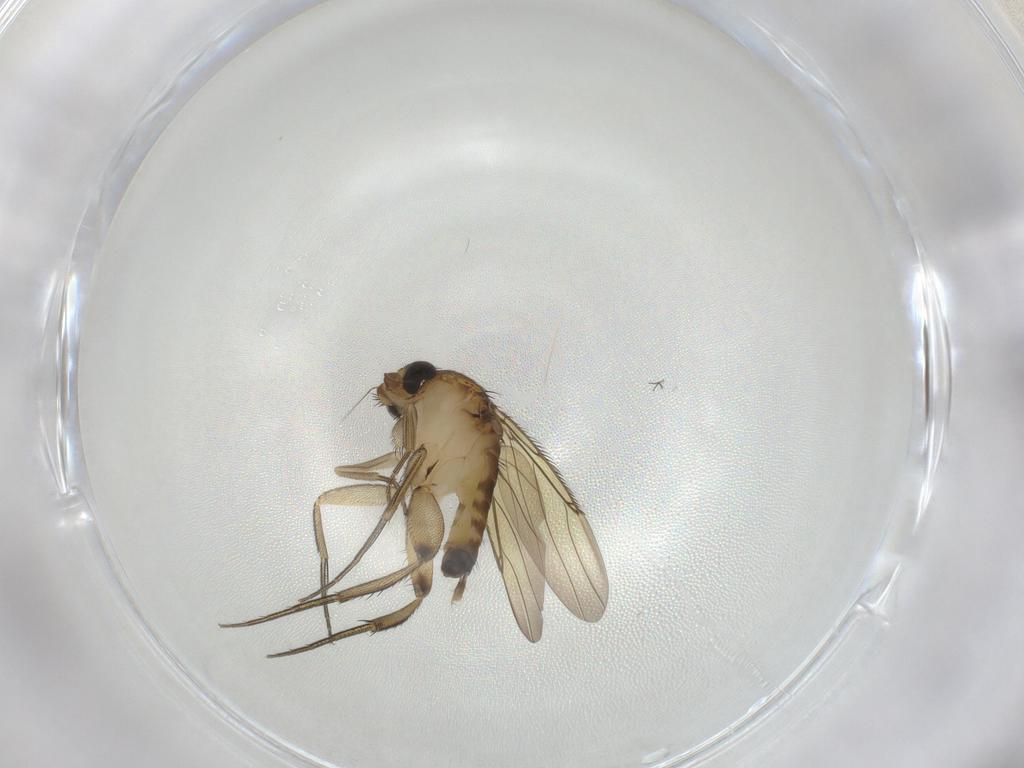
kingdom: Animalia
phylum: Arthropoda
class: Insecta
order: Diptera
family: Phoridae
